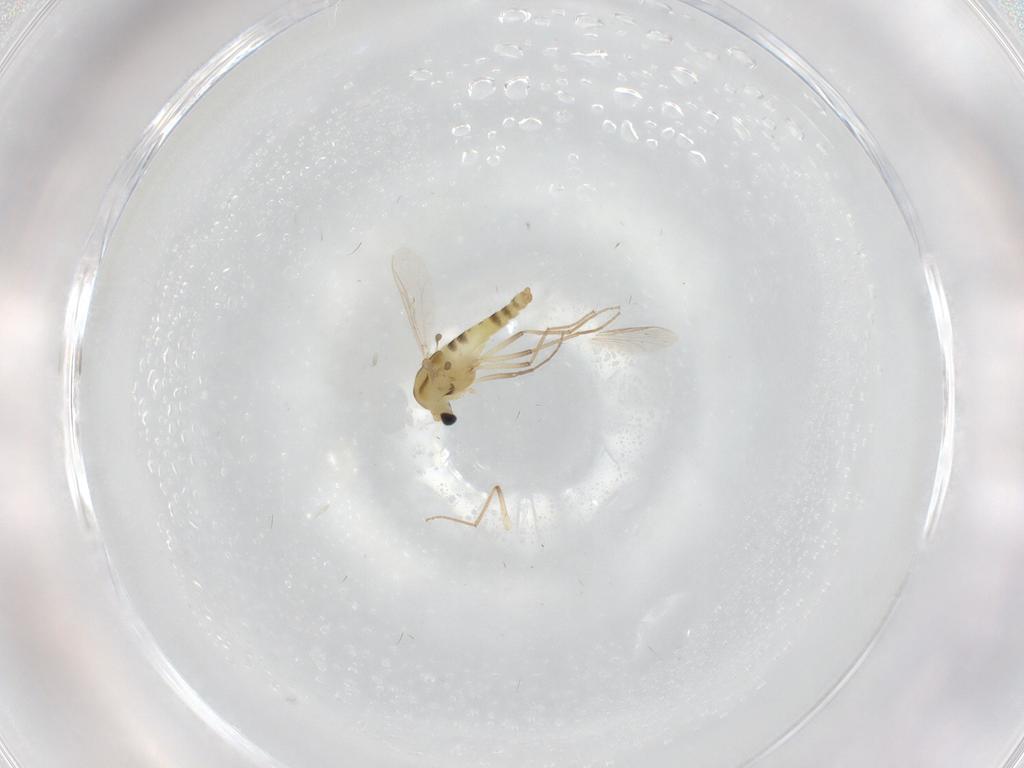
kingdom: Animalia
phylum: Arthropoda
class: Insecta
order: Diptera
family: Chironomidae
